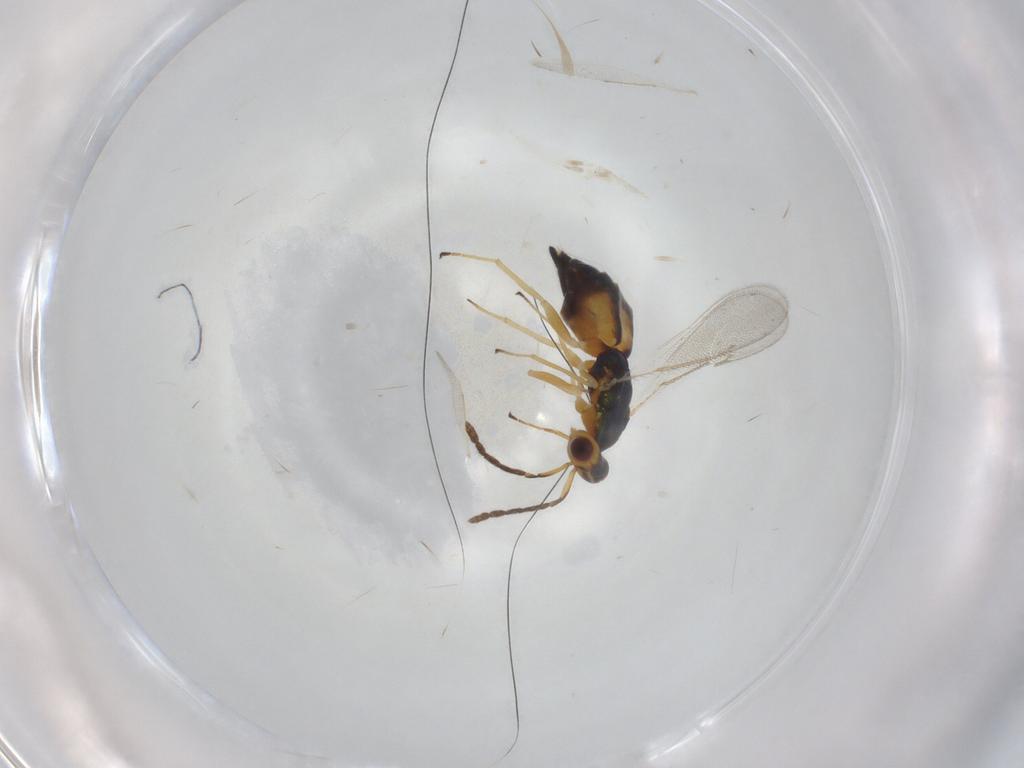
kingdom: Animalia
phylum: Arthropoda
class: Insecta
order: Hymenoptera
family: Eulophidae
